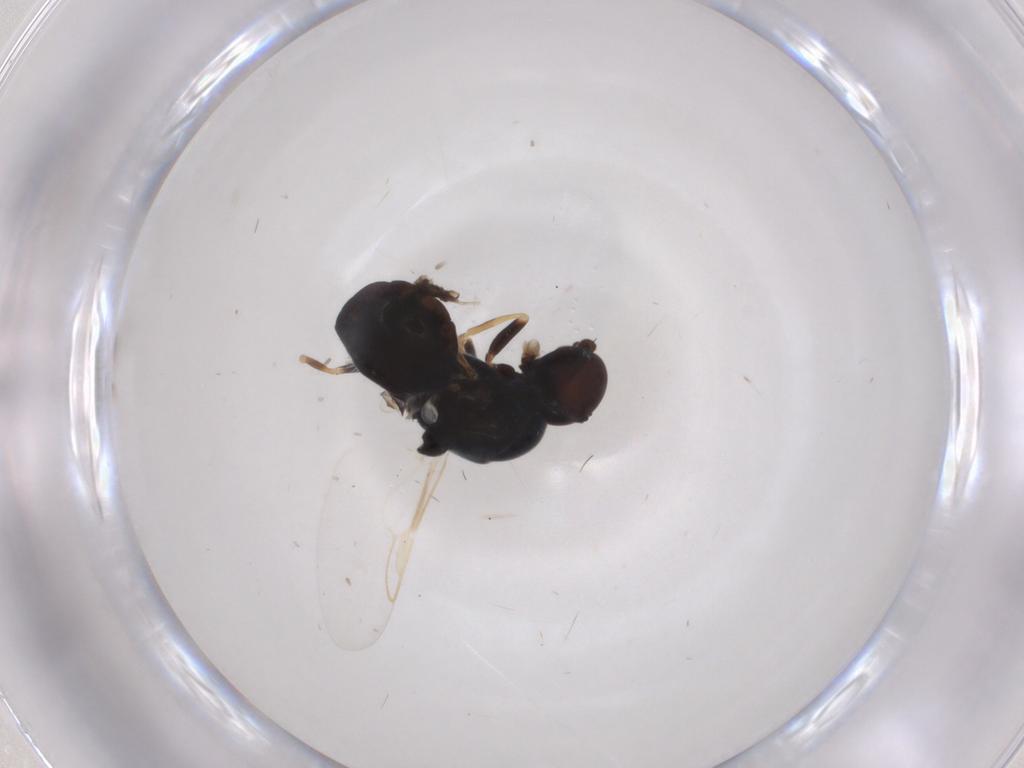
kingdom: Animalia
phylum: Arthropoda
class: Insecta
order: Diptera
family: Stratiomyidae
